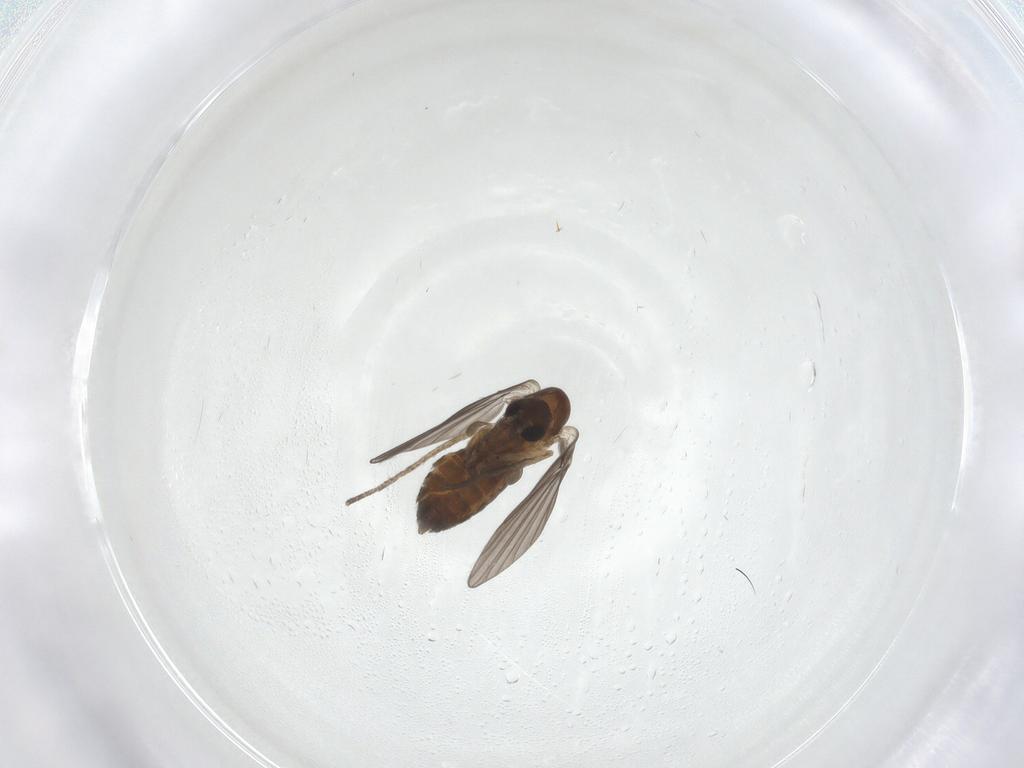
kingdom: Animalia
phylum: Arthropoda
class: Insecta
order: Diptera
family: Psychodidae
